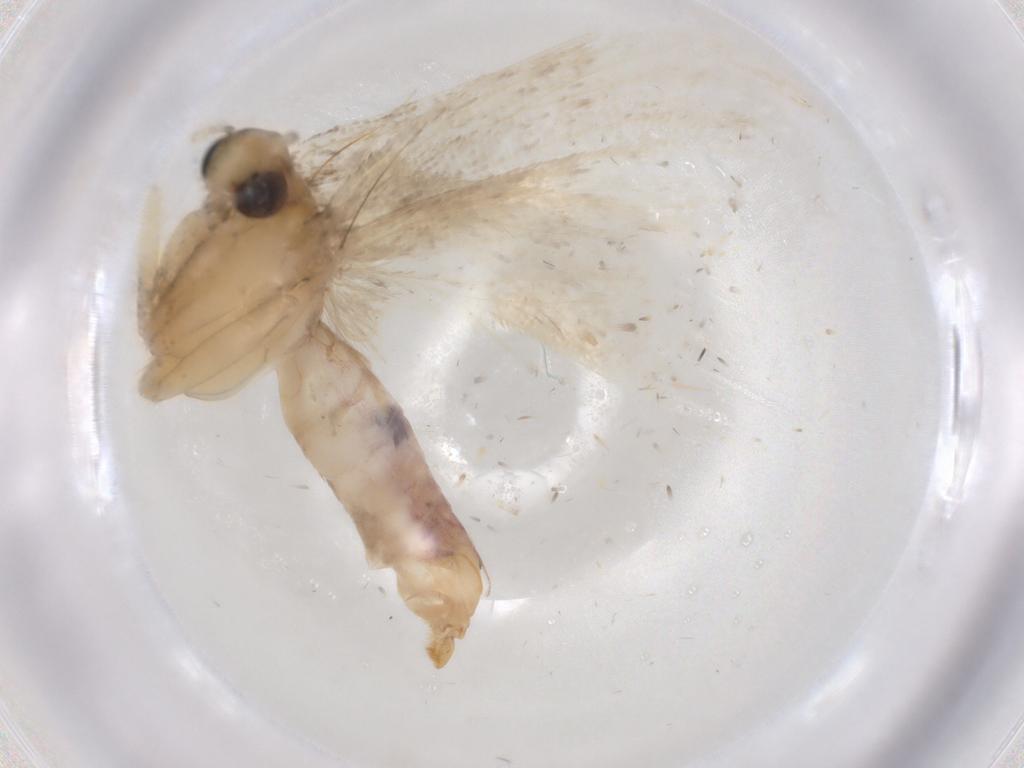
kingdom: Animalia
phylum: Arthropoda
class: Insecta
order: Lepidoptera
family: Gelechiidae
